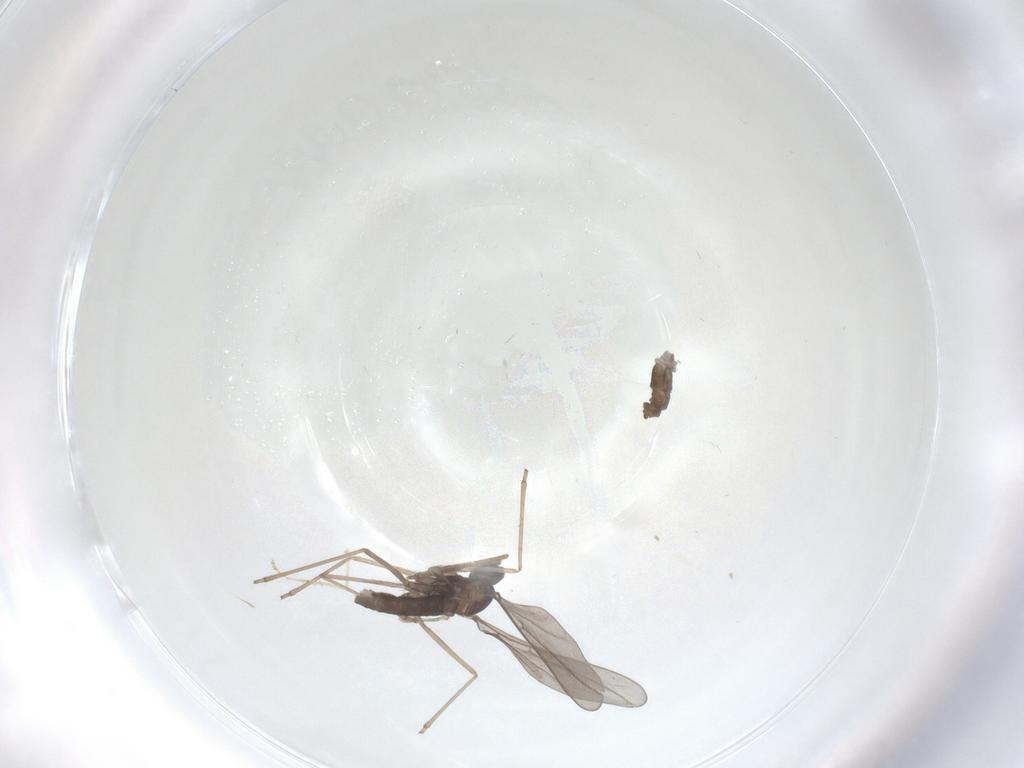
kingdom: Animalia
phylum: Arthropoda
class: Insecta
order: Diptera
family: Cecidomyiidae
